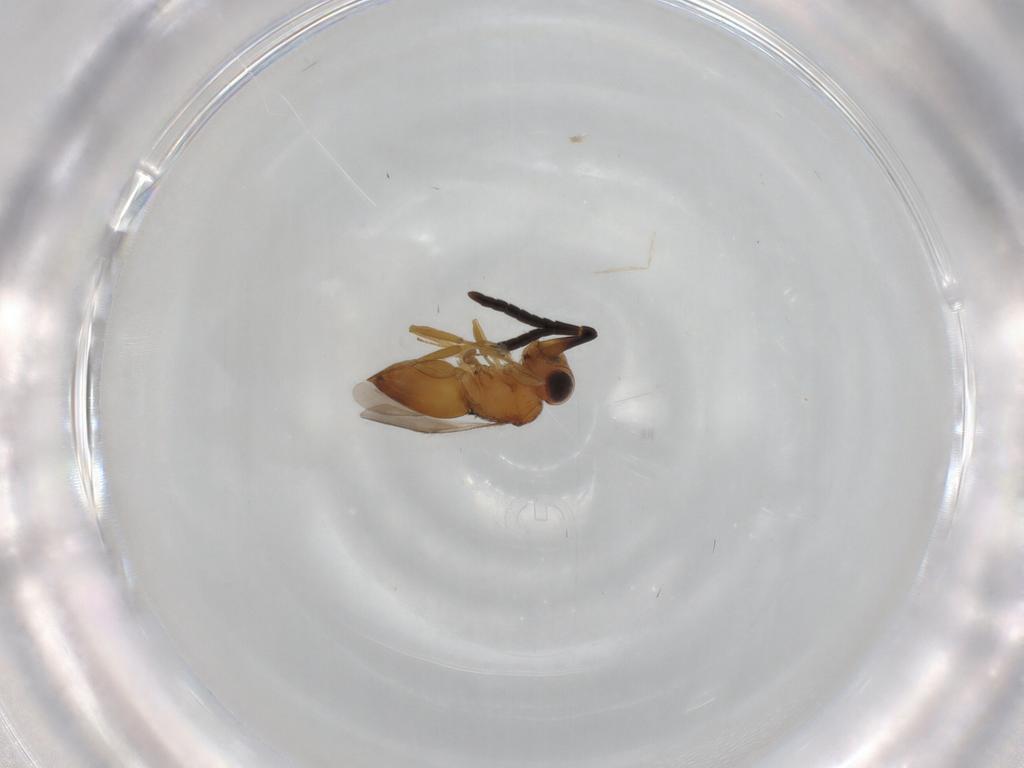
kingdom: Animalia
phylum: Arthropoda
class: Insecta
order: Hymenoptera
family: Ceraphronidae
